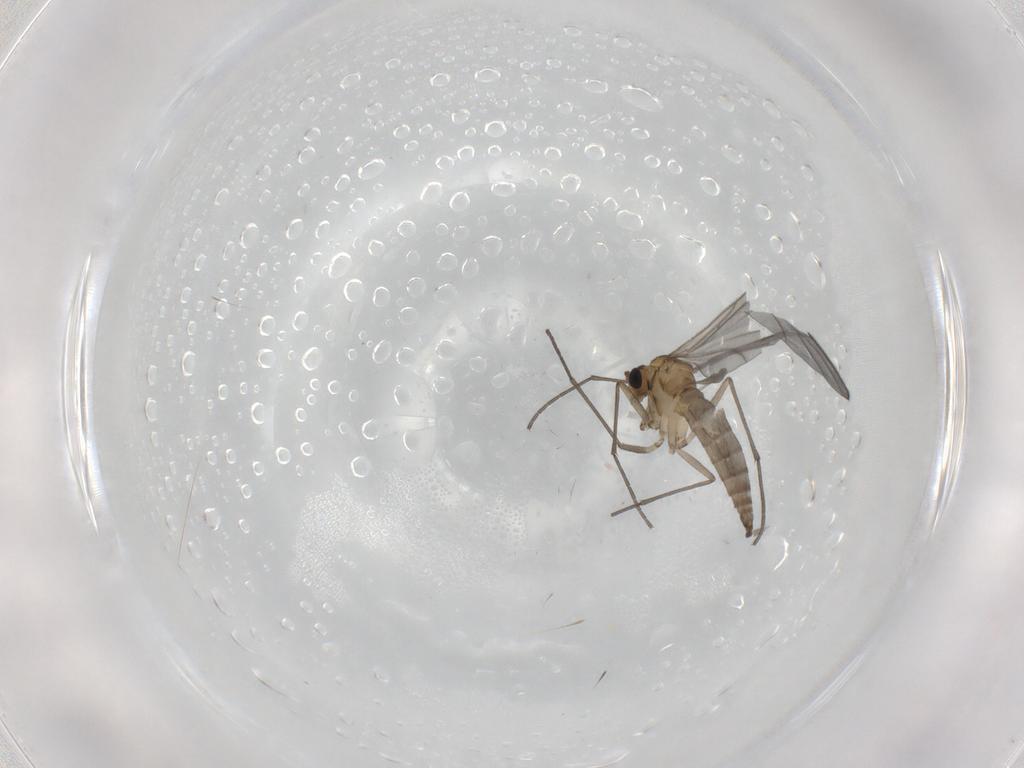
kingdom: Animalia
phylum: Arthropoda
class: Insecta
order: Diptera
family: Sciaridae
